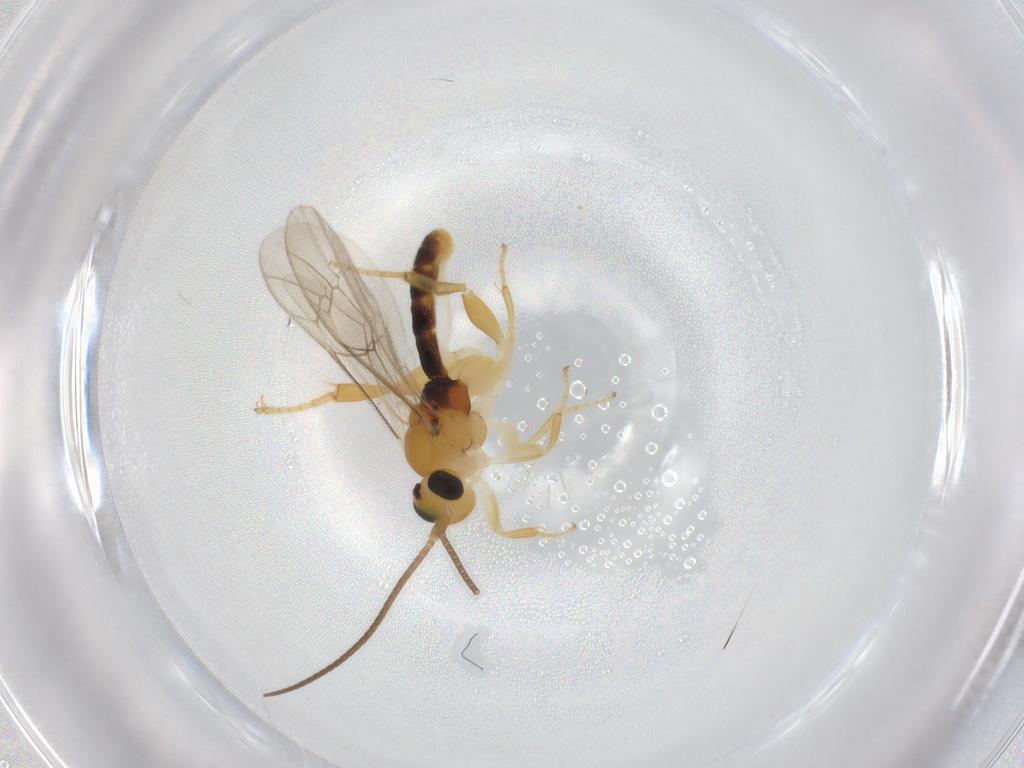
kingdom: Animalia
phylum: Arthropoda
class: Insecta
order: Hymenoptera
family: Ichneumonidae
